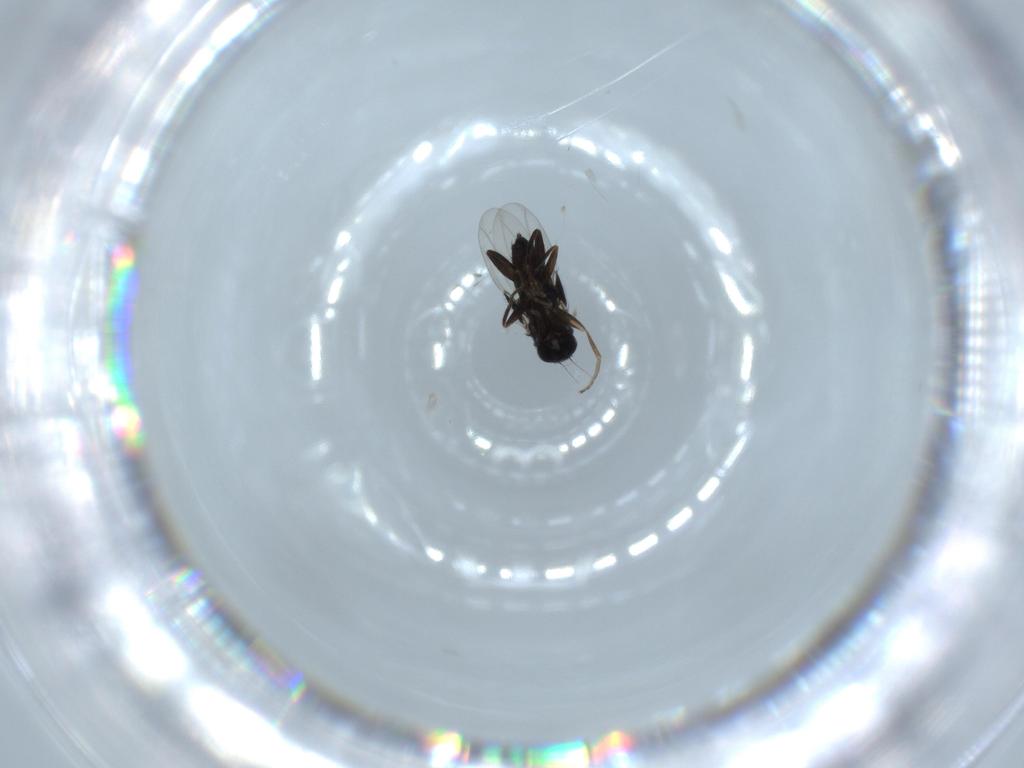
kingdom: Animalia
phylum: Arthropoda
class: Insecta
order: Diptera
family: Phoridae
